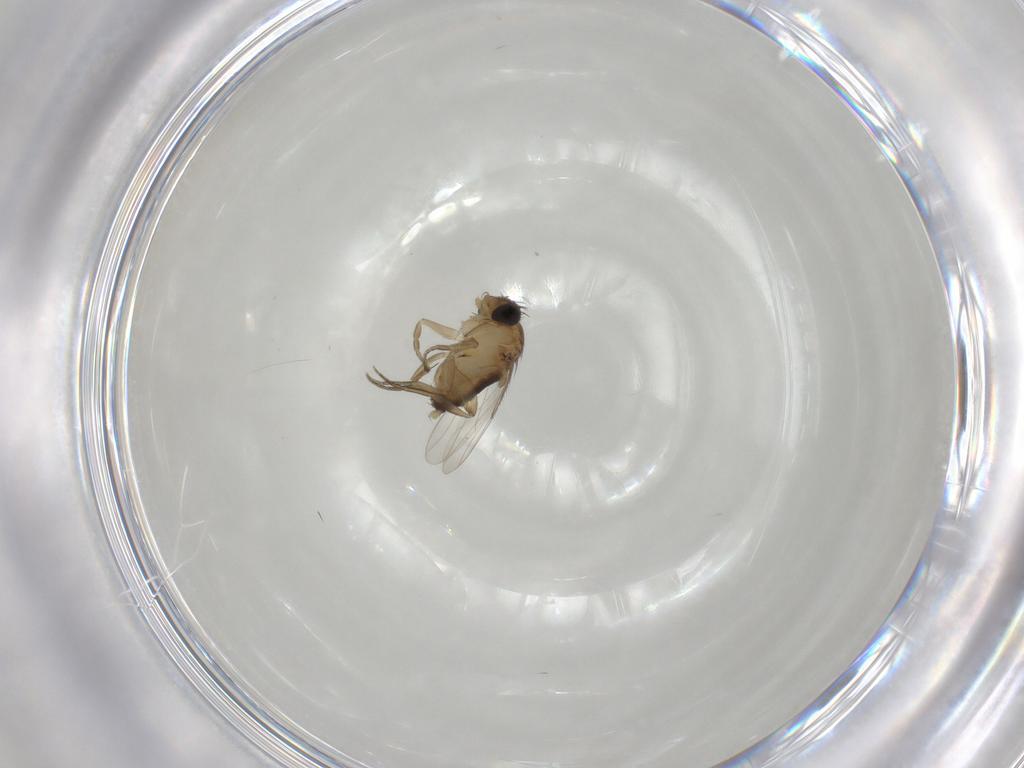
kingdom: Animalia
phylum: Arthropoda
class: Insecta
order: Diptera
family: Phoridae
